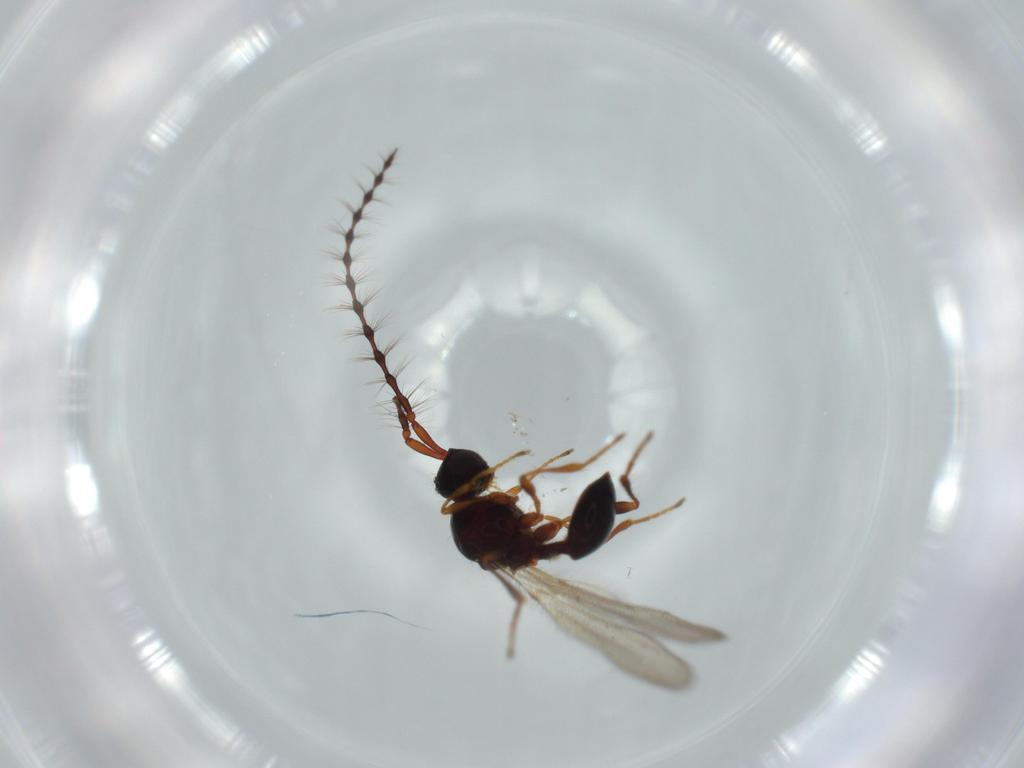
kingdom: Animalia
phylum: Arthropoda
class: Insecta
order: Hymenoptera
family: Diapriidae
